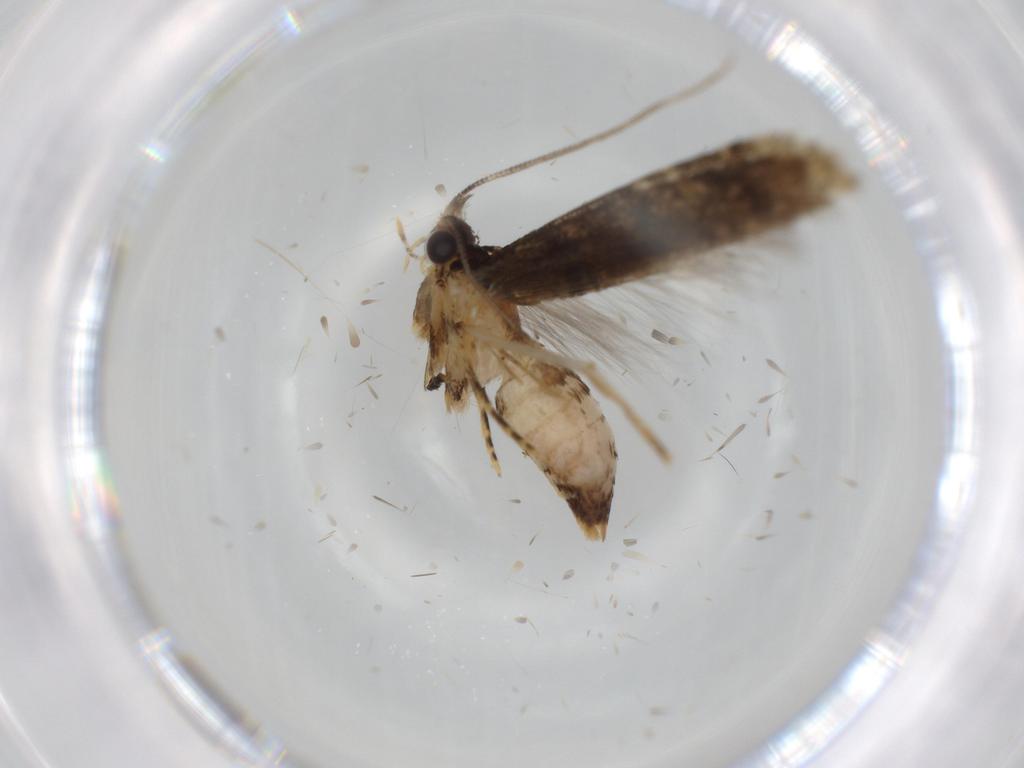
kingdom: Animalia
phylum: Arthropoda
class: Insecta
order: Lepidoptera
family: Tineidae
